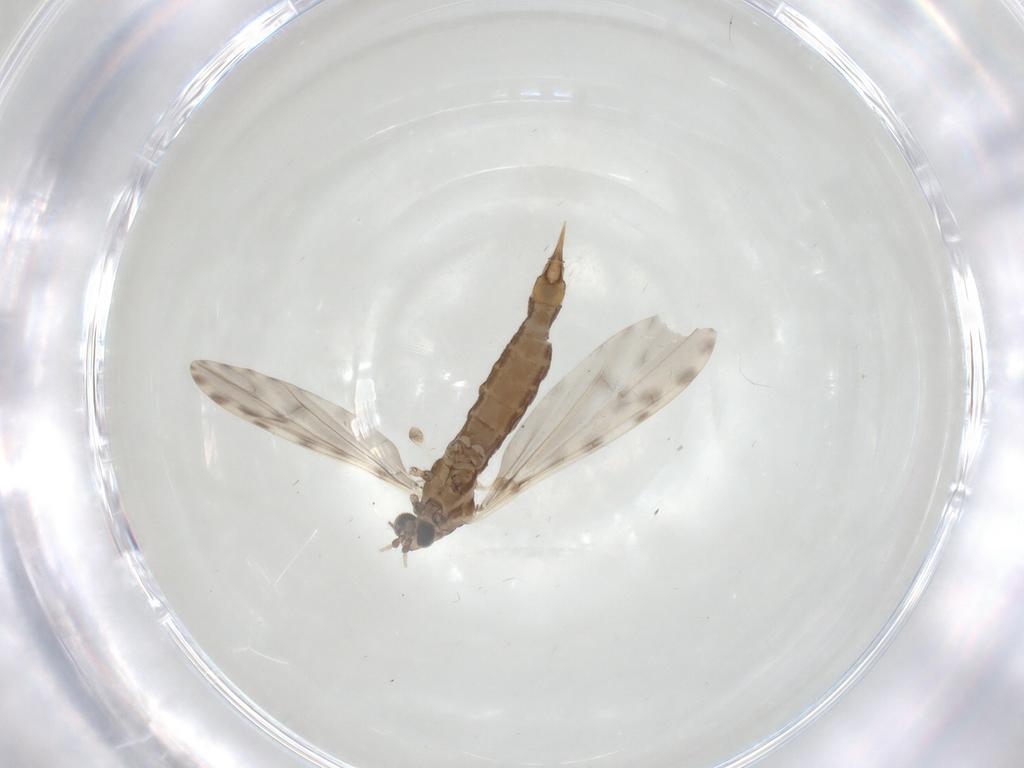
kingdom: Animalia
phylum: Arthropoda
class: Insecta
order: Diptera
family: Limoniidae
